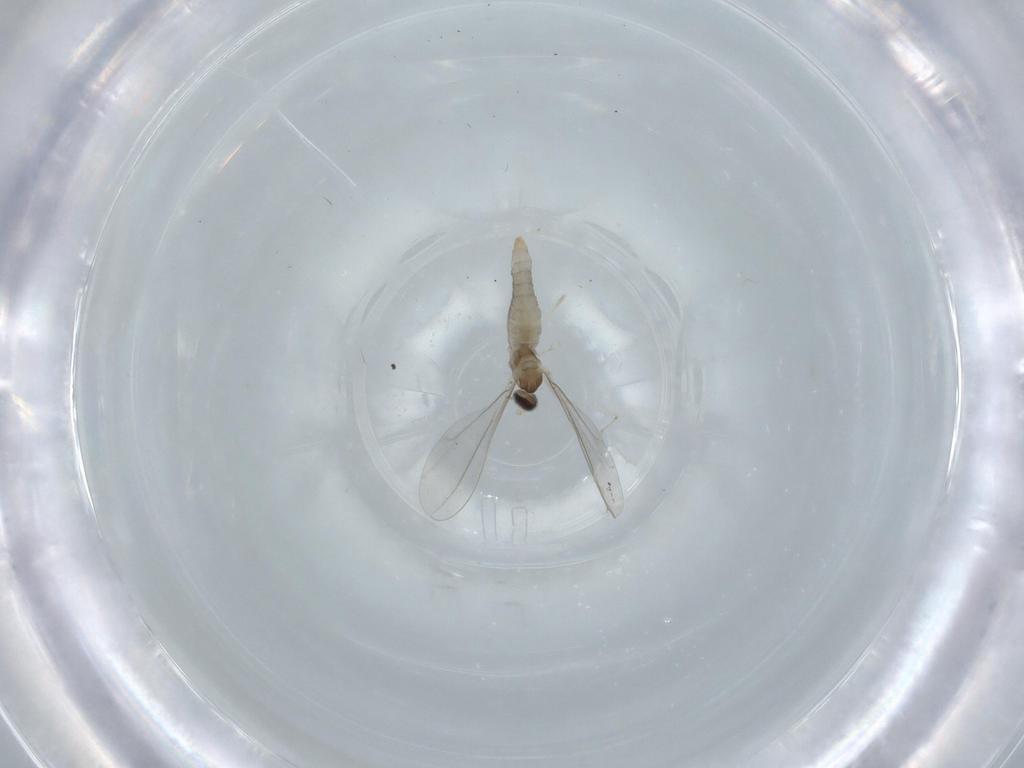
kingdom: Animalia
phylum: Arthropoda
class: Insecta
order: Diptera
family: Cecidomyiidae
